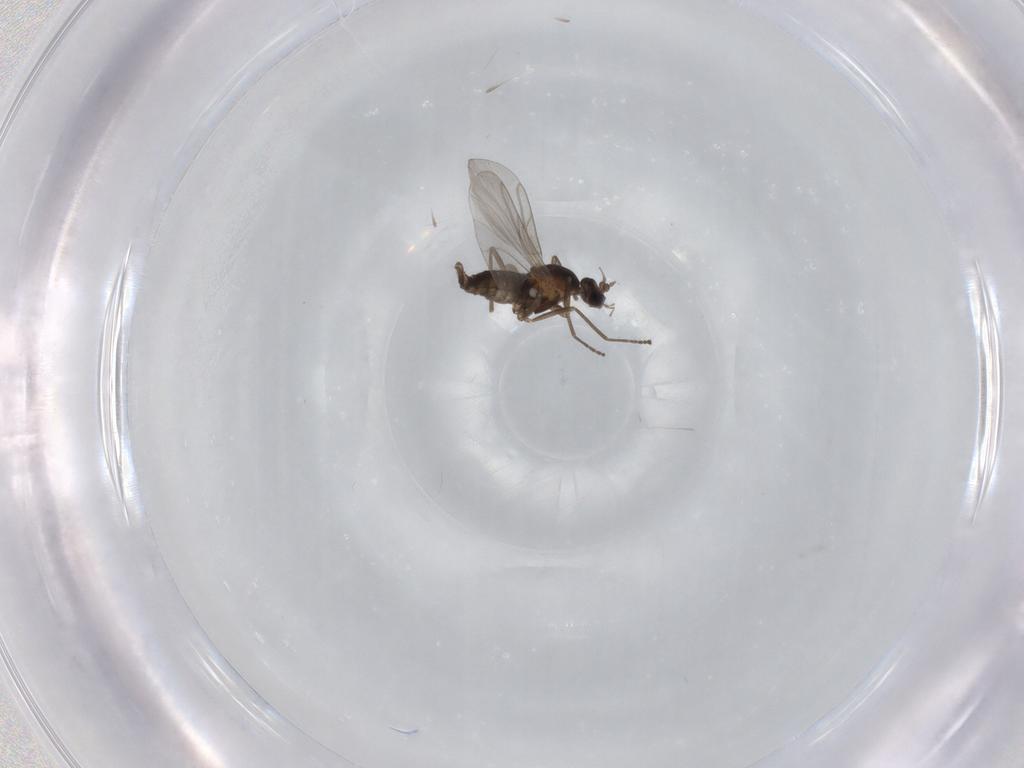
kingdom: Animalia
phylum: Arthropoda
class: Insecta
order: Diptera
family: Cecidomyiidae
